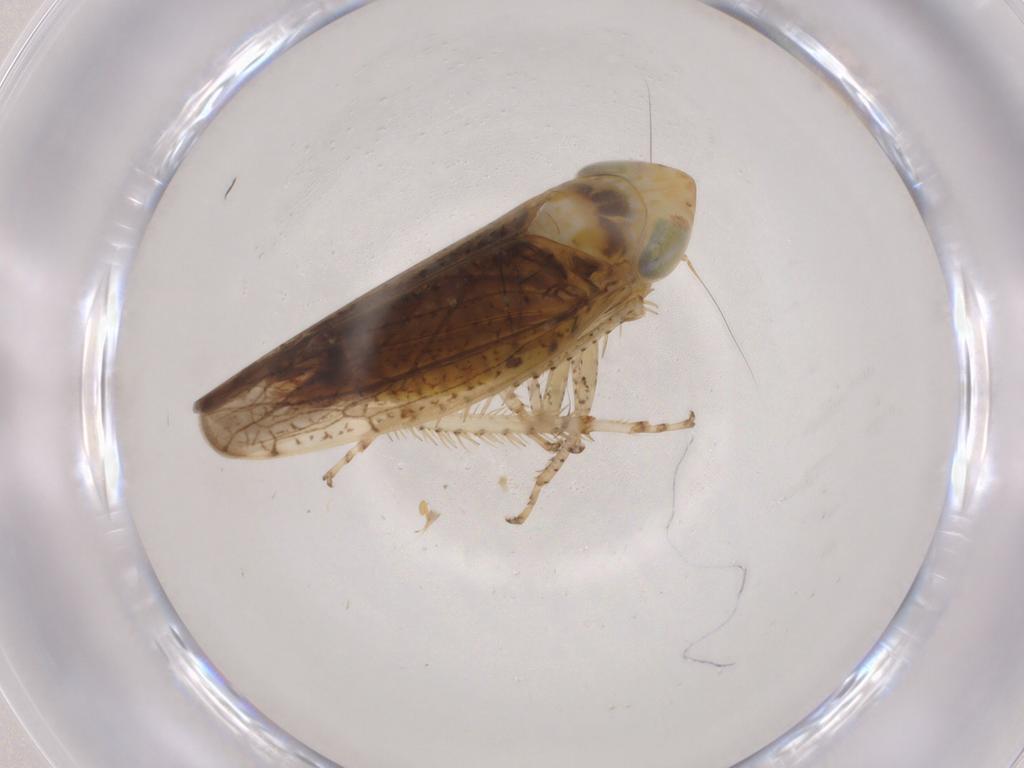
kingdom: Animalia
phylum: Arthropoda
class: Insecta
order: Hemiptera
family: Cicadellidae
